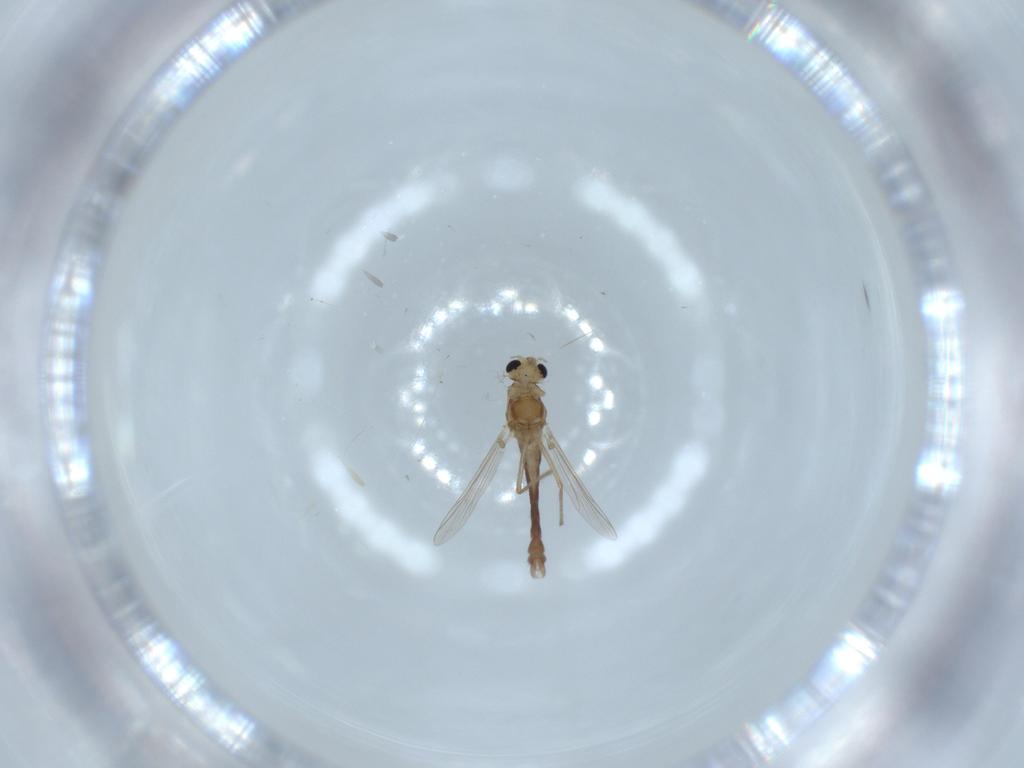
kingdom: Animalia
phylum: Arthropoda
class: Insecta
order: Diptera
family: Chironomidae
